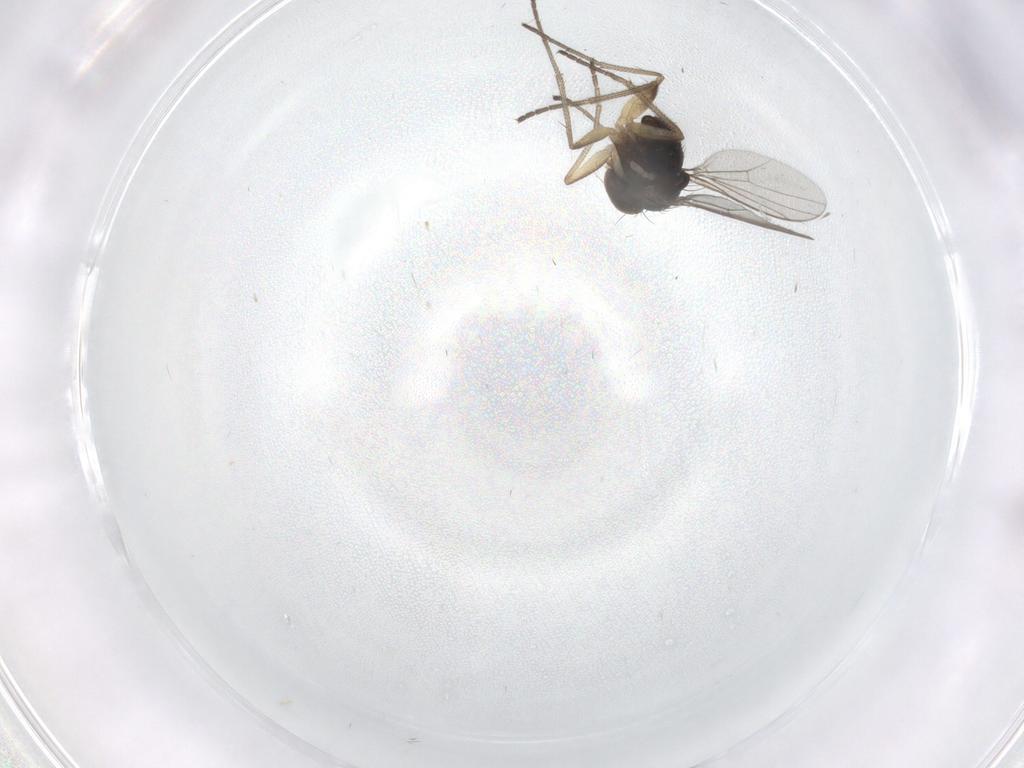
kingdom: Animalia
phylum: Arthropoda
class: Insecta
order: Diptera
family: Dolichopodidae
